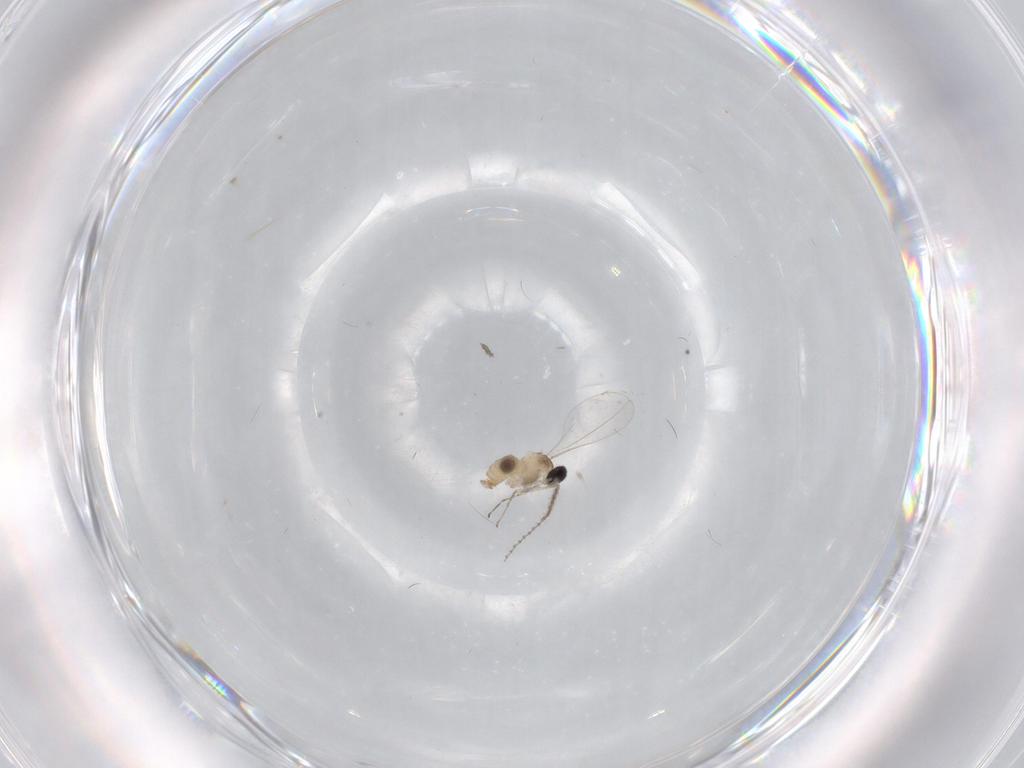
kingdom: Animalia
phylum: Arthropoda
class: Insecta
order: Diptera
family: Cecidomyiidae
